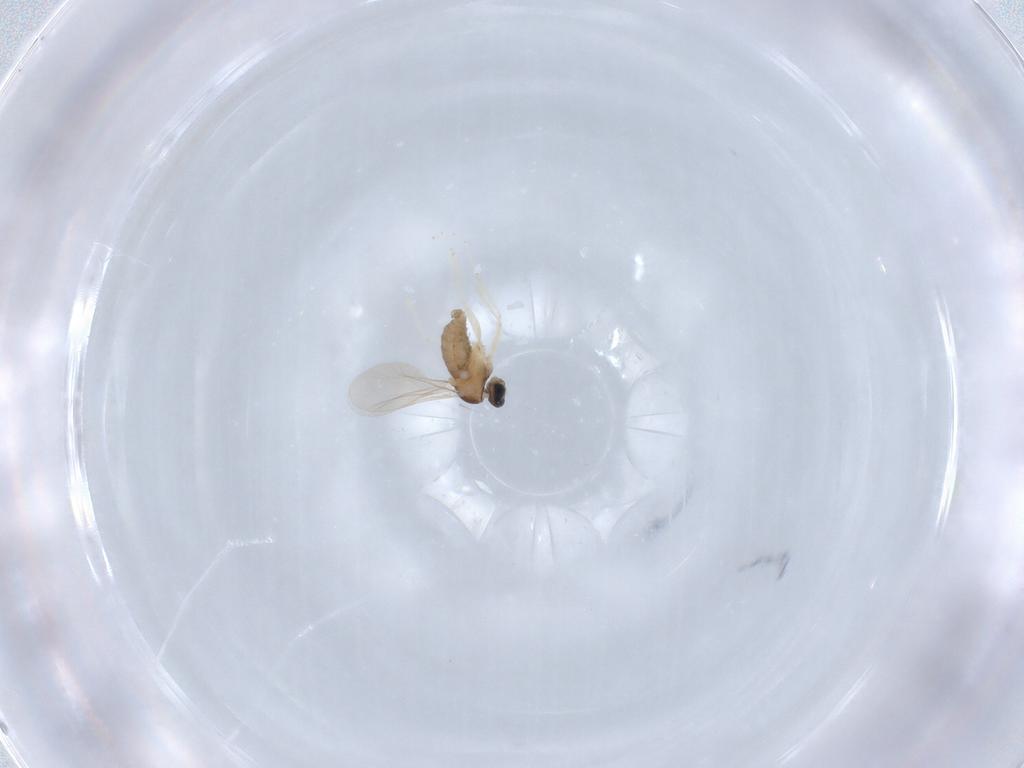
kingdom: Animalia
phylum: Arthropoda
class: Insecta
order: Diptera
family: Cecidomyiidae
